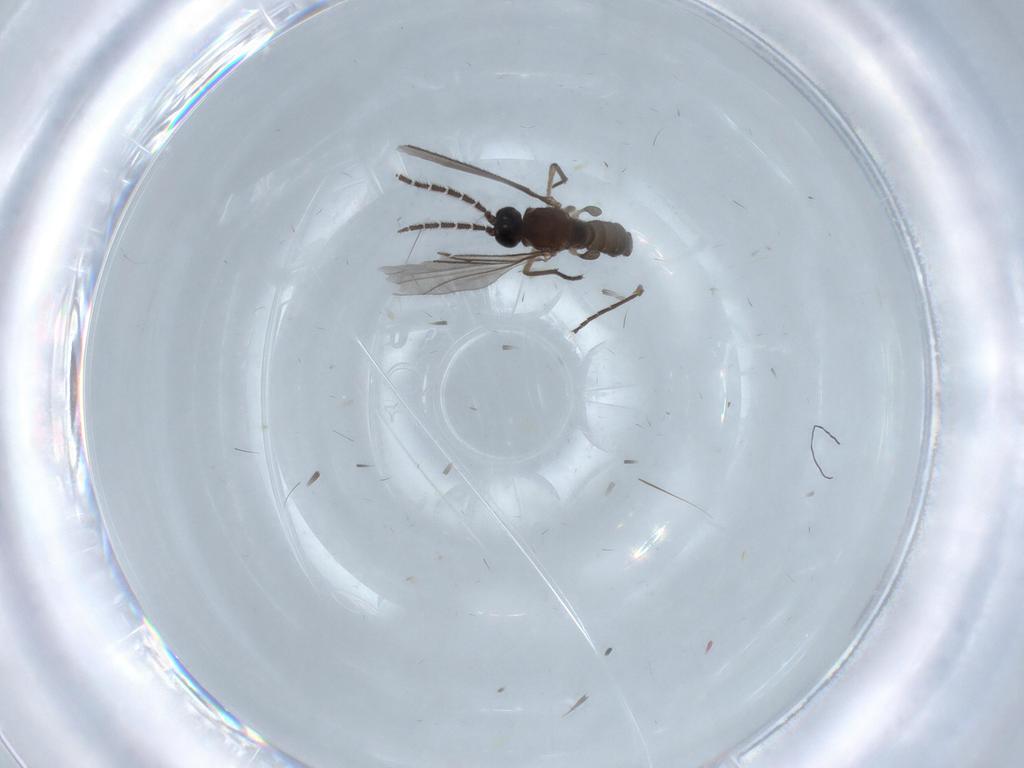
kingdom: Animalia
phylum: Arthropoda
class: Insecta
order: Diptera
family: Sciaridae
